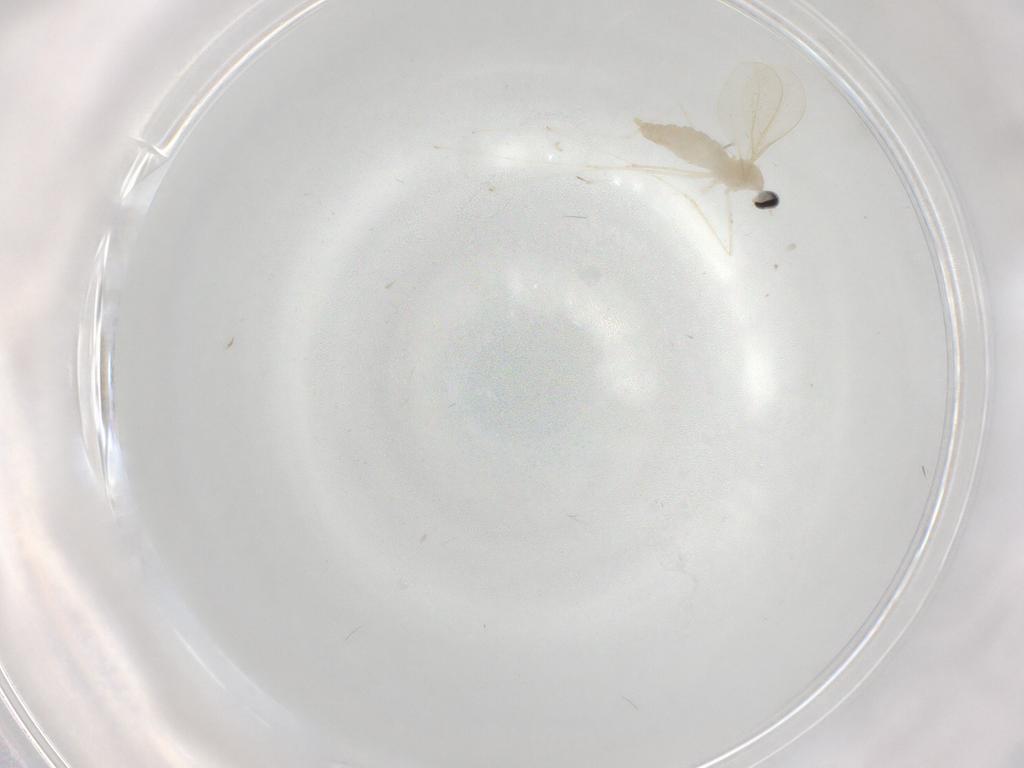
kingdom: Animalia
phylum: Arthropoda
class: Insecta
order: Diptera
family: Cecidomyiidae
